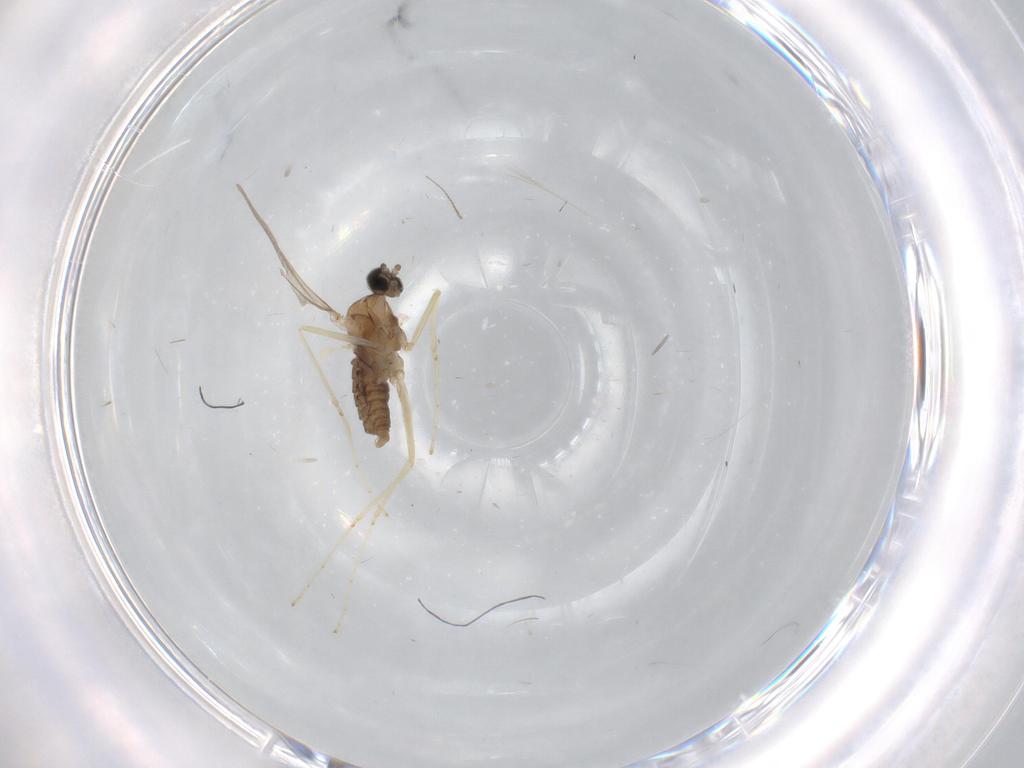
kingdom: Animalia
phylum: Arthropoda
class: Insecta
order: Diptera
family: Cecidomyiidae
